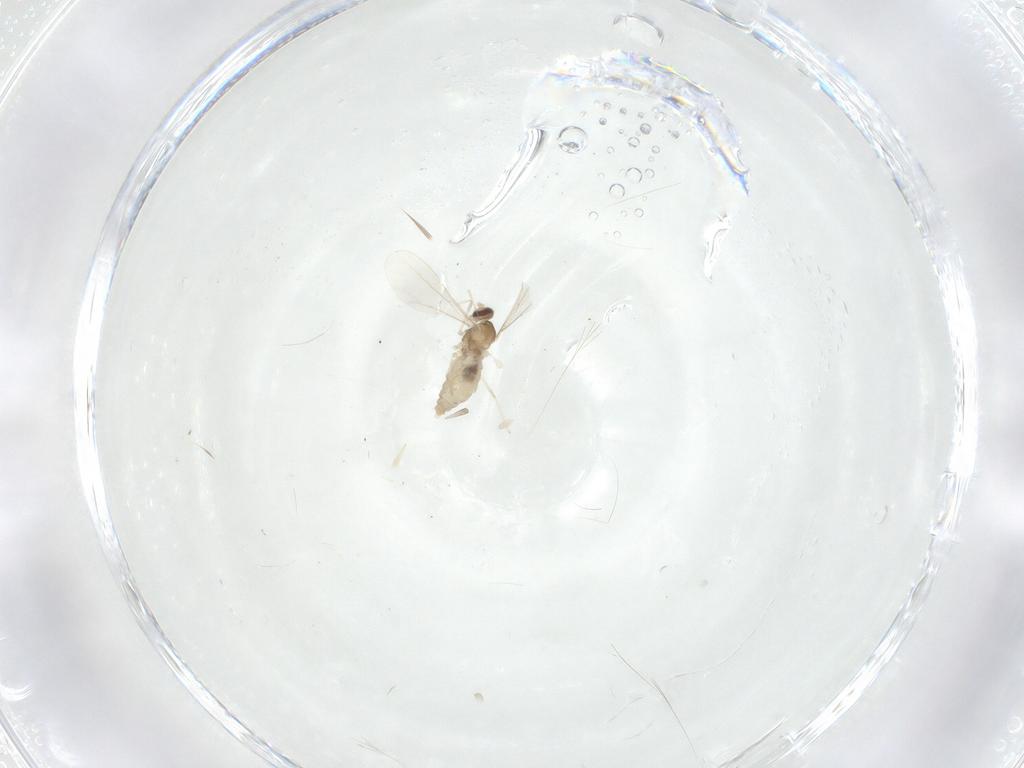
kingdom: Animalia
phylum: Arthropoda
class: Insecta
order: Diptera
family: Cecidomyiidae
